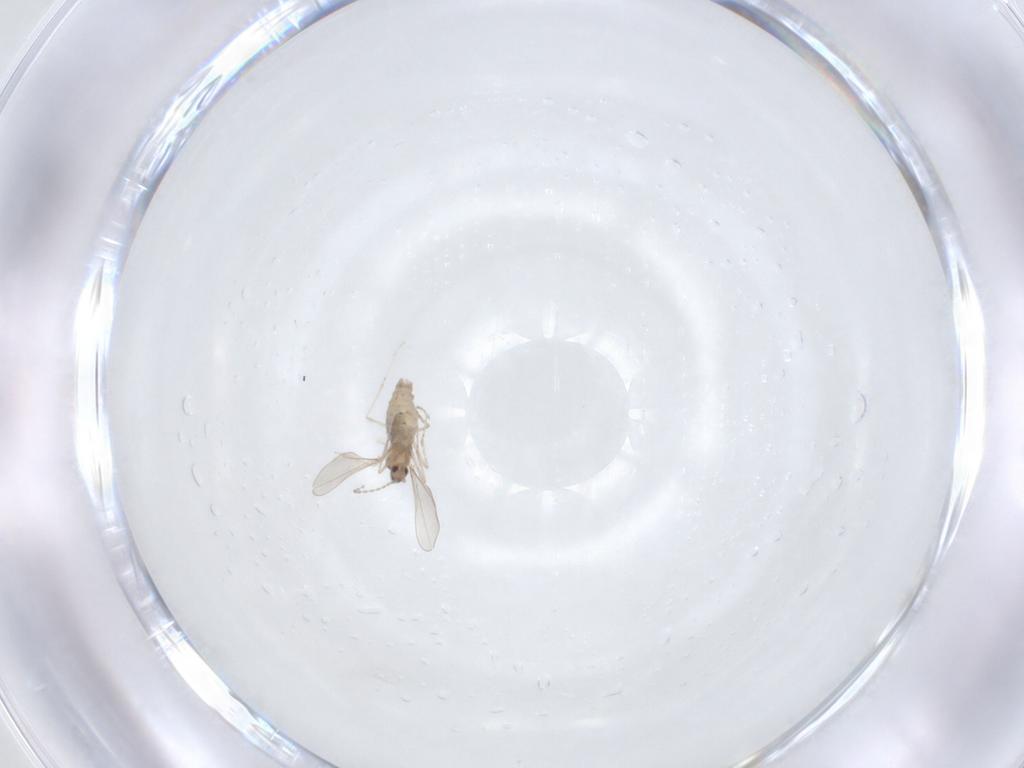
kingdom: Animalia
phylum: Arthropoda
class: Insecta
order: Diptera
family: Cecidomyiidae
